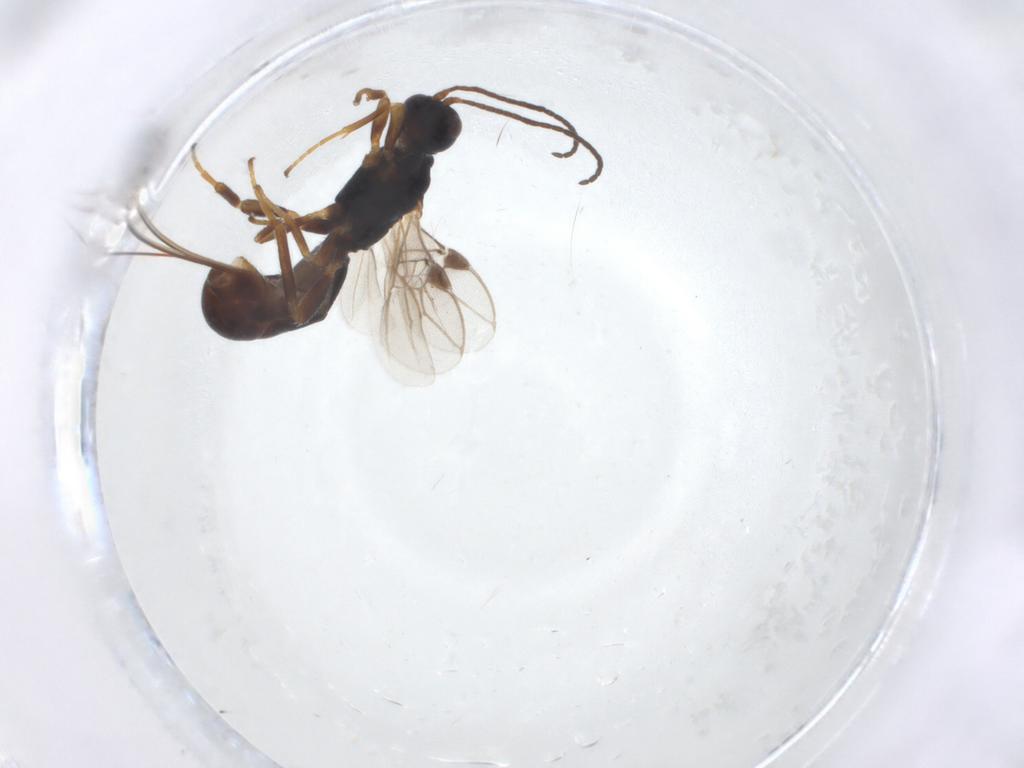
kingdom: Animalia
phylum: Arthropoda
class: Insecta
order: Hymenoptera
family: Braconidae
